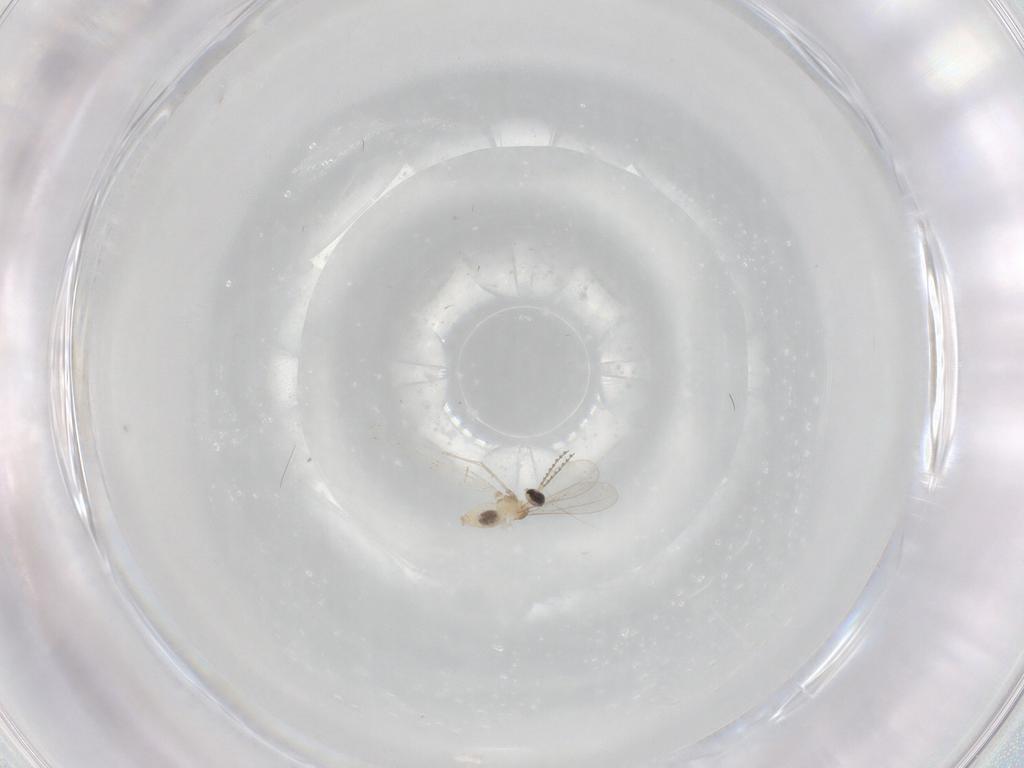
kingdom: Animalia
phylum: Arthropoda
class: Insecta
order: Diptera
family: Cecidomyiidae
